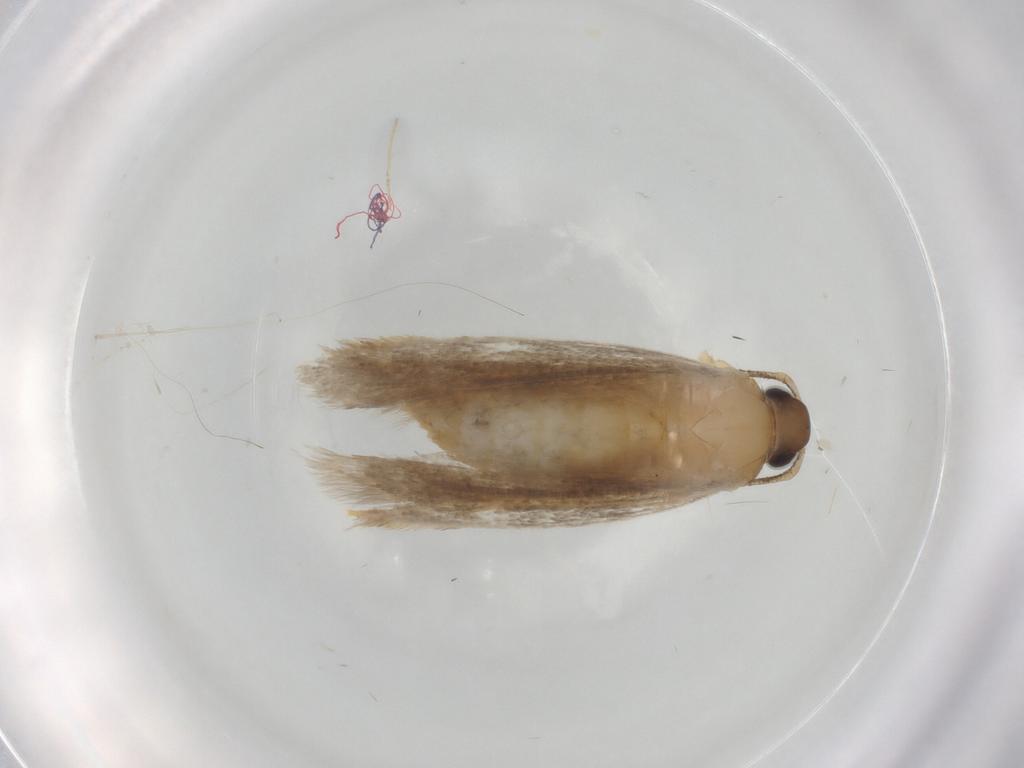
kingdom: Animalia
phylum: Arthropoda
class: Insecta
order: Lepidoptera
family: Autostichidae
